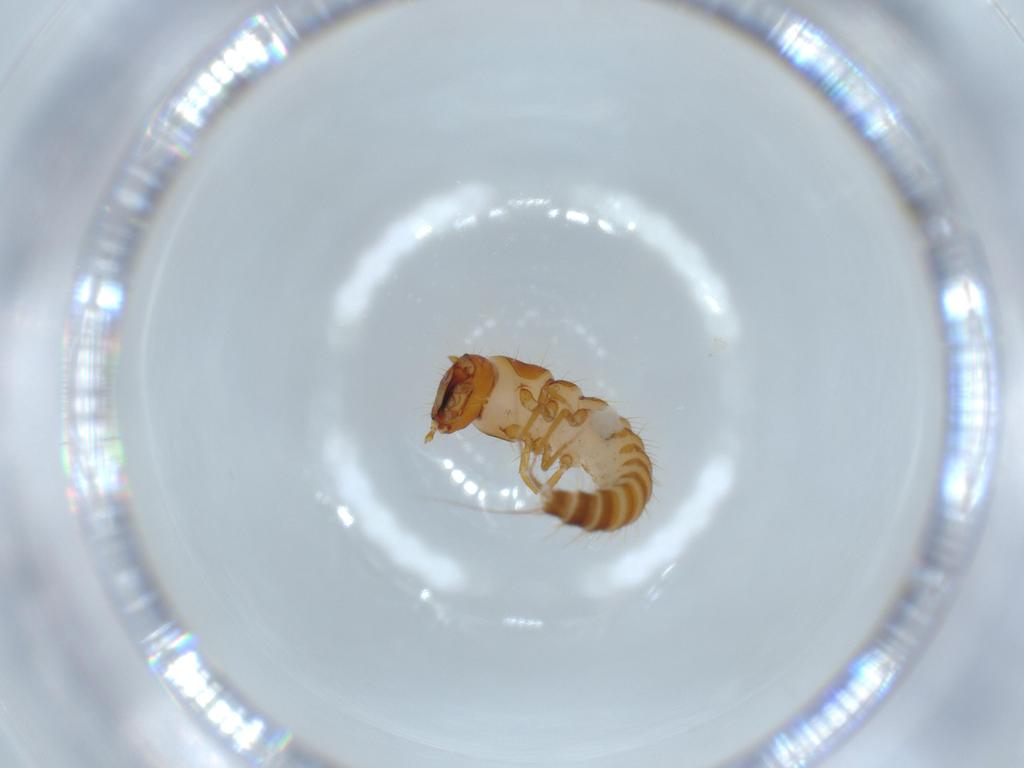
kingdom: Animalia
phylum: Arthropoda
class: Insecta
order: Coleoptera
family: Meloidae
